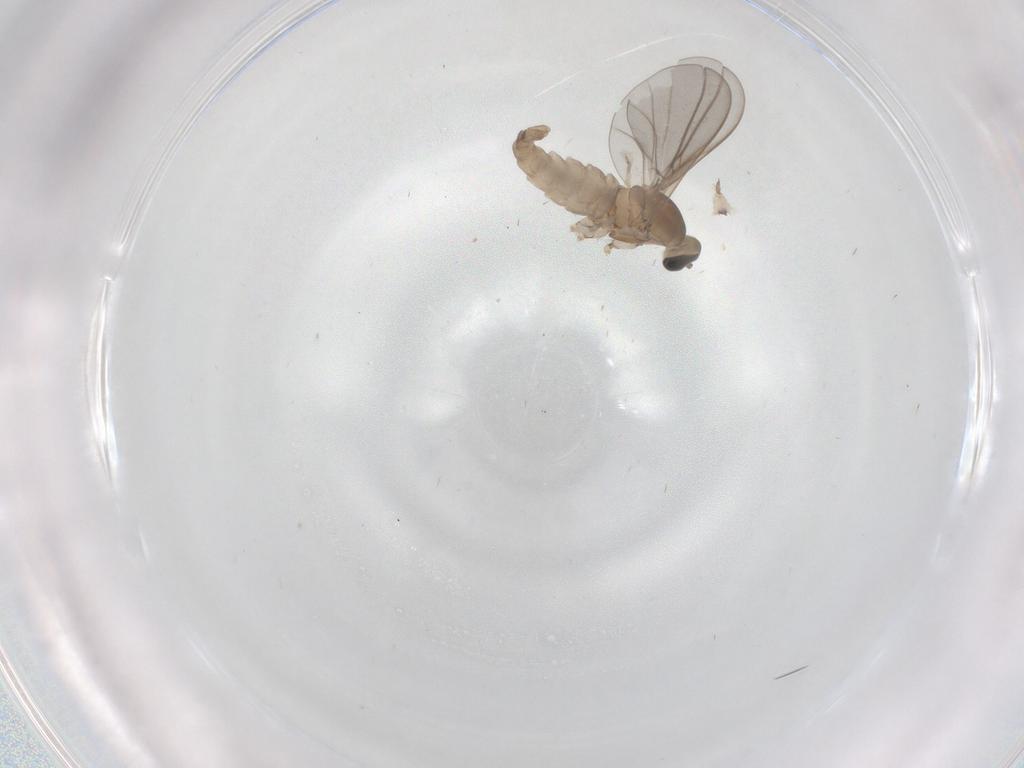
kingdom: Animalia
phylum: Arthropoda
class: Insecta
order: Diptera
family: Cecidomyiidae
